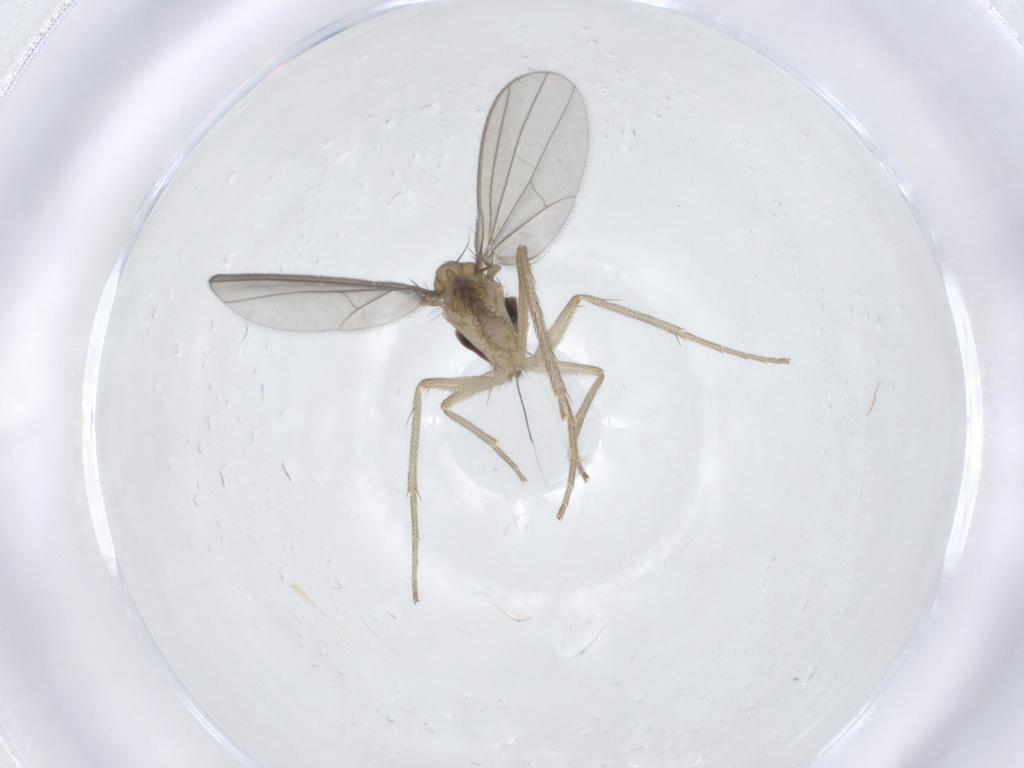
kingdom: Animalia
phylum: Arthropoda
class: Insecta
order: Diptera
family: Dolichopodidae
